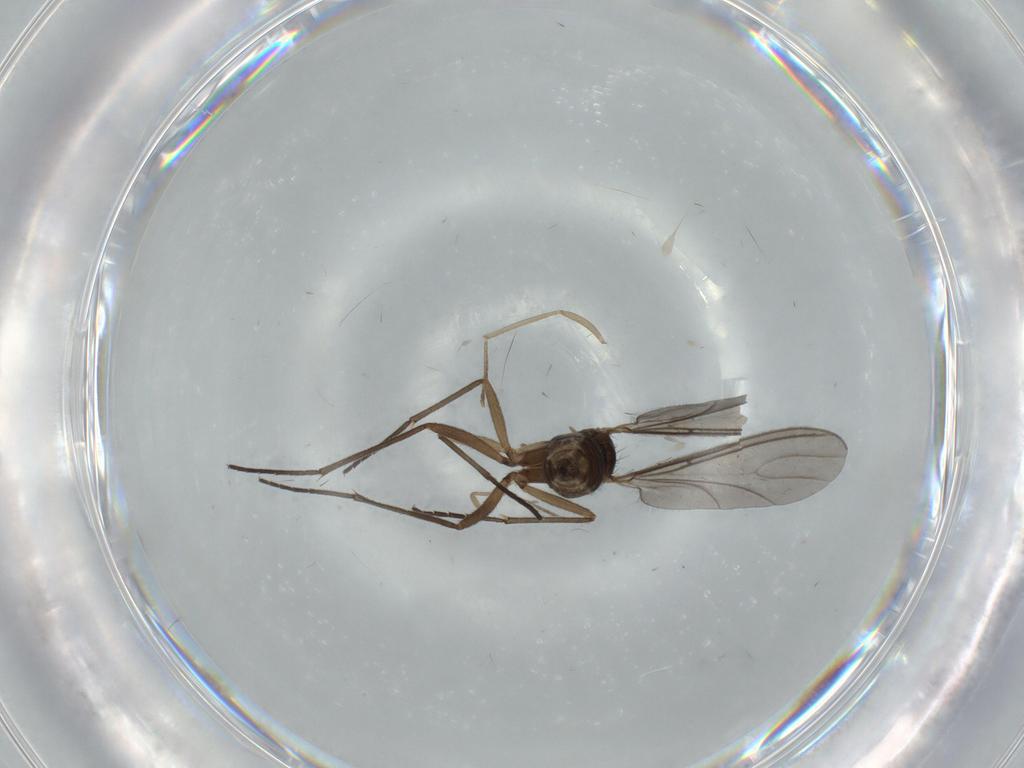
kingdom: Animalia
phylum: Arthropoda
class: Insecta
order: Diptera
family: Sciaridae
